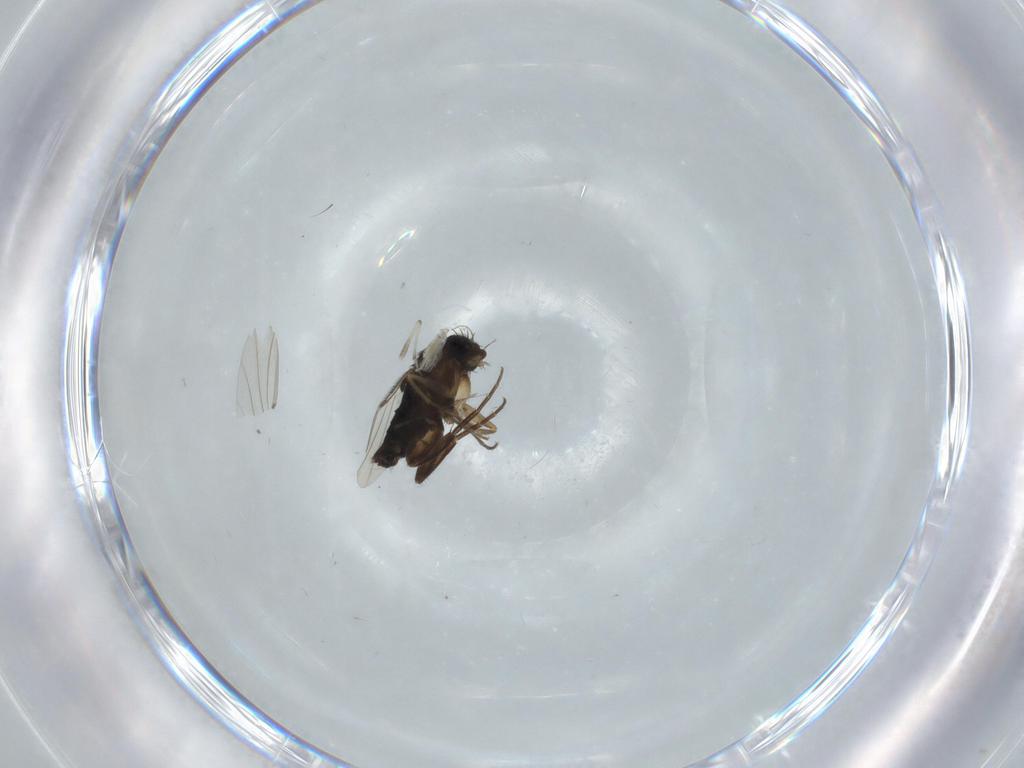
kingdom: Animalia
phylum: Arthropoda
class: Insecta
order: Diptera
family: Chironomidae
